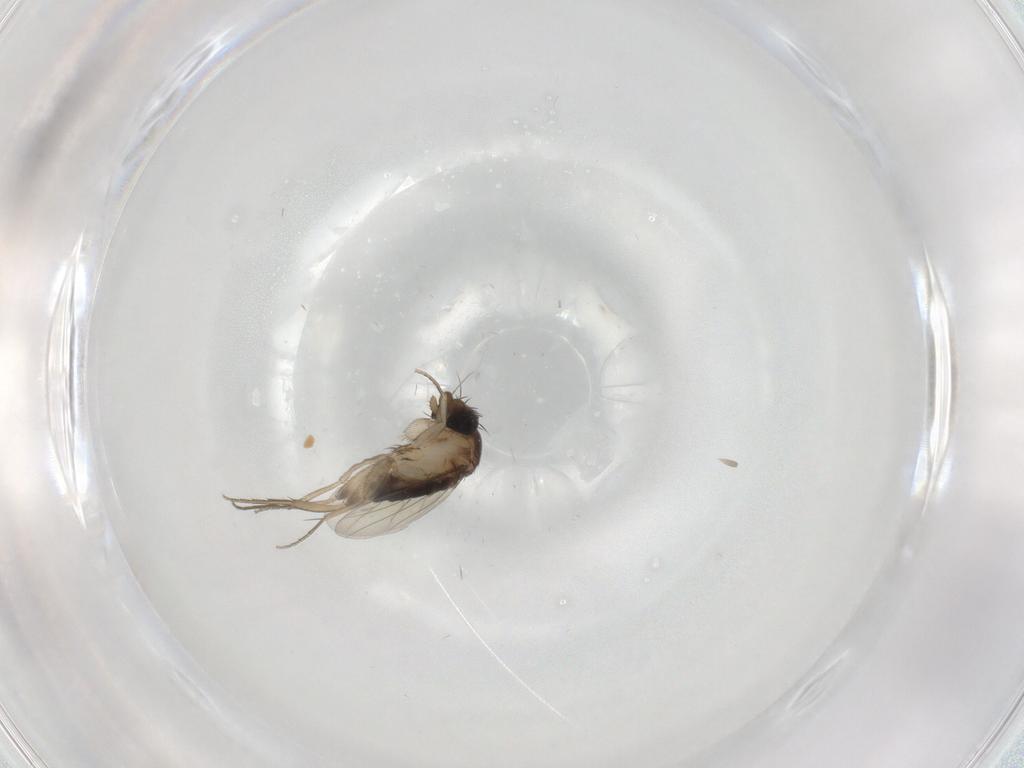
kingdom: Animalia
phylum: Arthropoda
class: Insecta
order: Diptera
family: Phoridae
